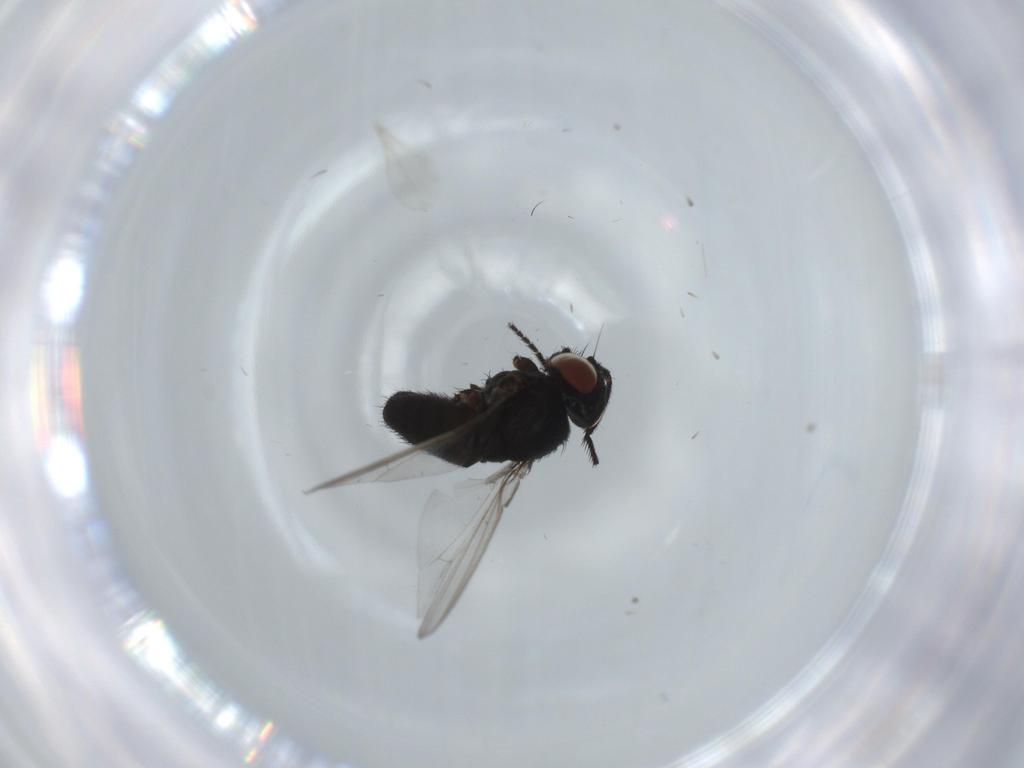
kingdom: Animalia
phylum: Arthropoda
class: Insecta
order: Diptera
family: Milichiidae
